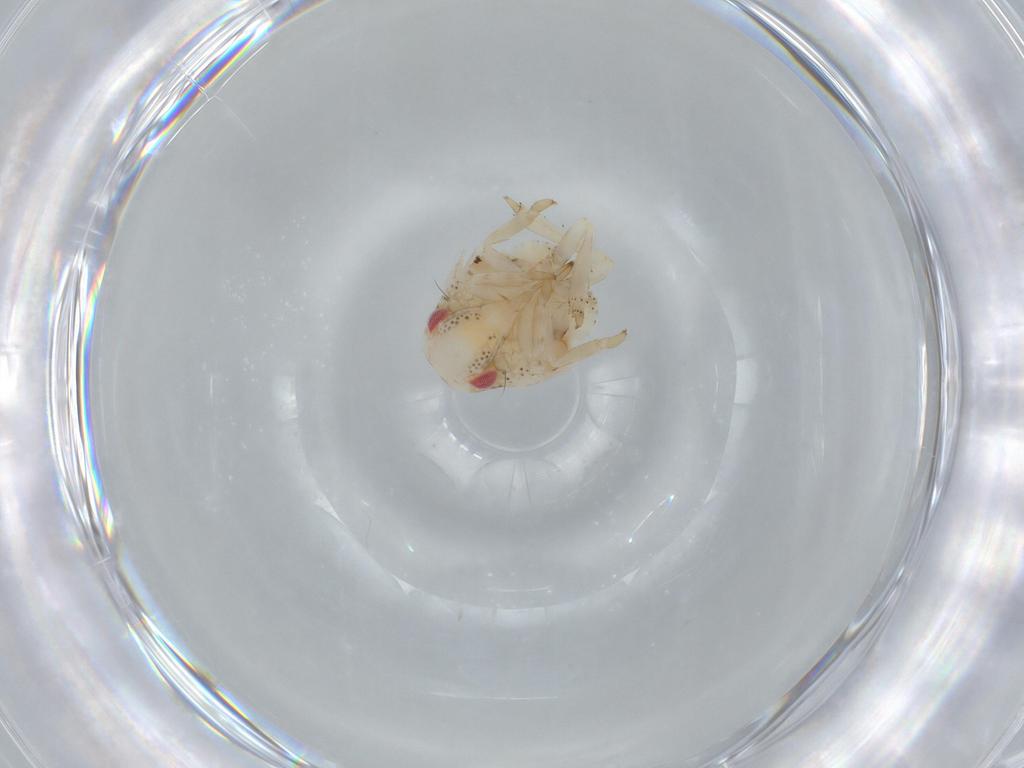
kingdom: Animalia
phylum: Arthropoda
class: Insecta
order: Hemiptera
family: Acanaloniidae
